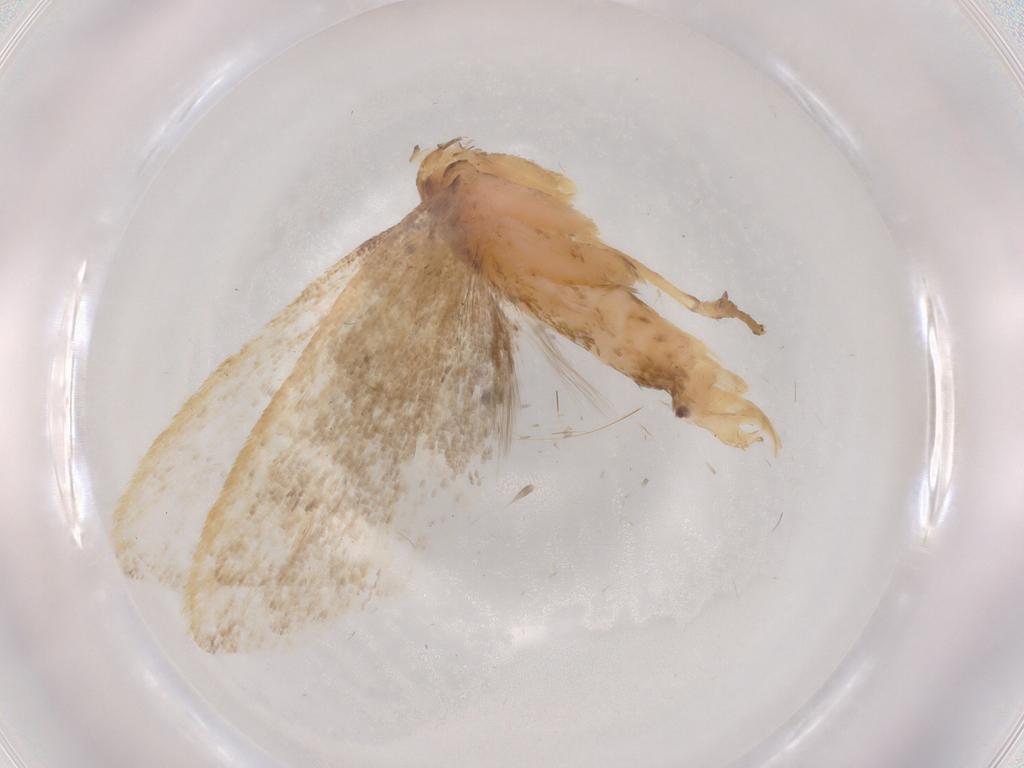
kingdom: Animalia
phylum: Arthropoda
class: Insecta
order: Lepidoptera
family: Lecithoceridae
